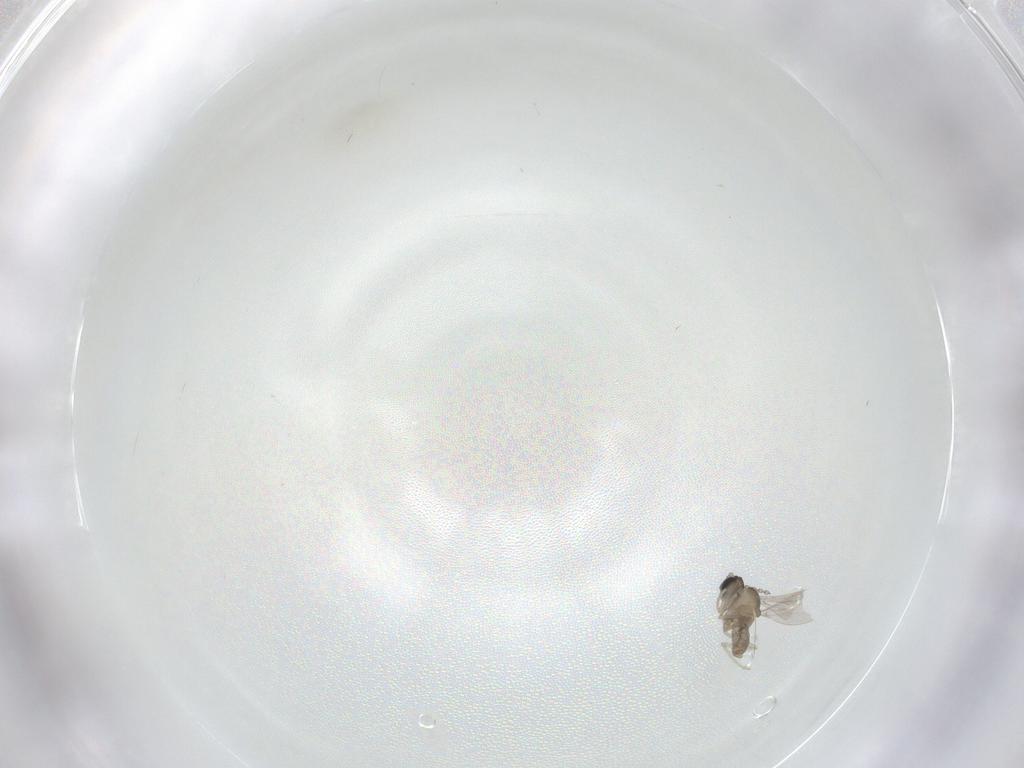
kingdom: Animalia
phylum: Arthropoda
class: Insecta
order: Diptera
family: Cecidomyiidae
